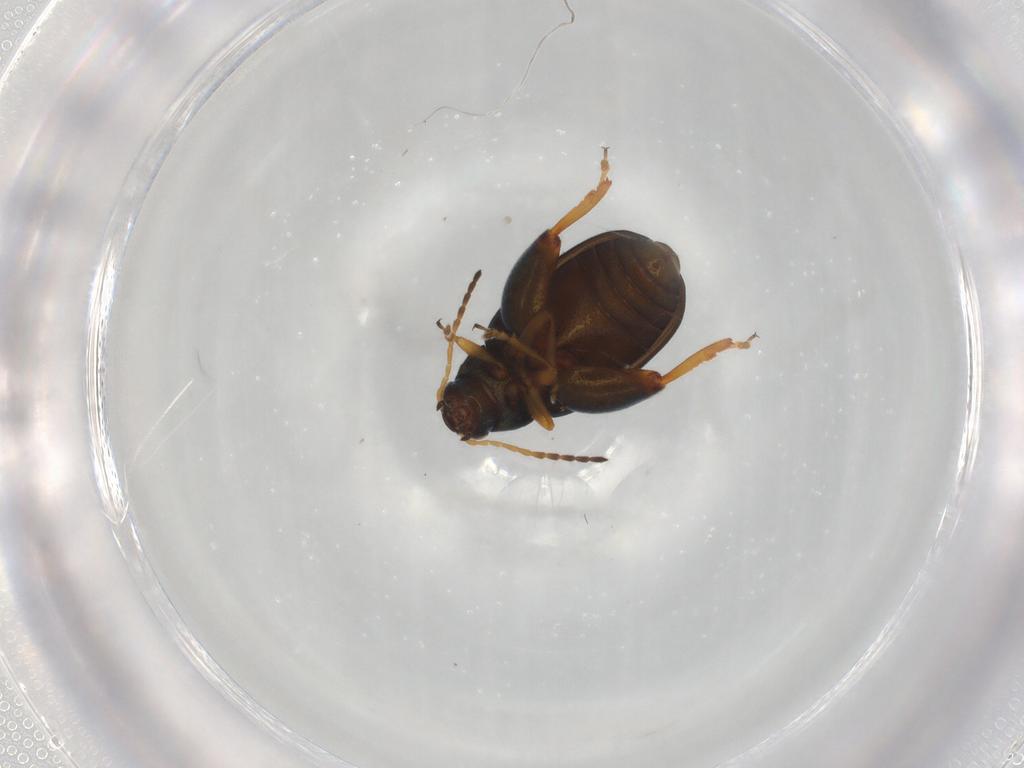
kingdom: Animalia
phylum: Arthropoda
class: Insecta
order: Coleoptera
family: Chrysomelidae
